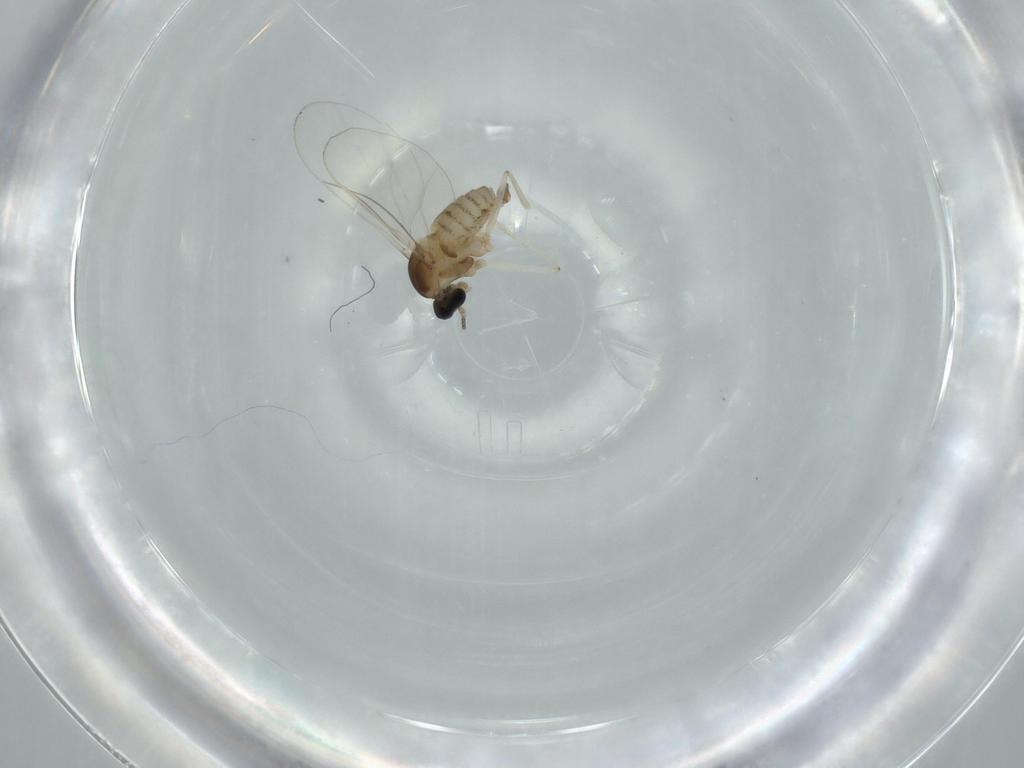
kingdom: Animalia
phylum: Arthropoda
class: Insecta
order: Diptera
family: Cecidomyiidae
